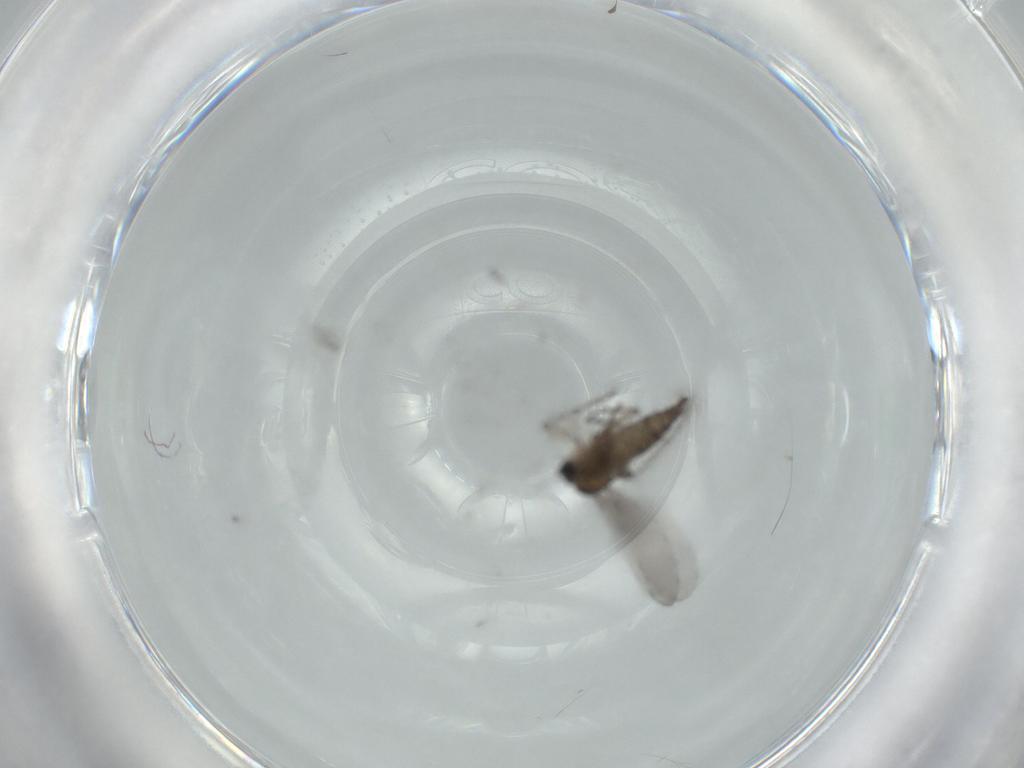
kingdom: Animalia
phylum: Arthropoda
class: Insecta
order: Diptera
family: Sciaridae
